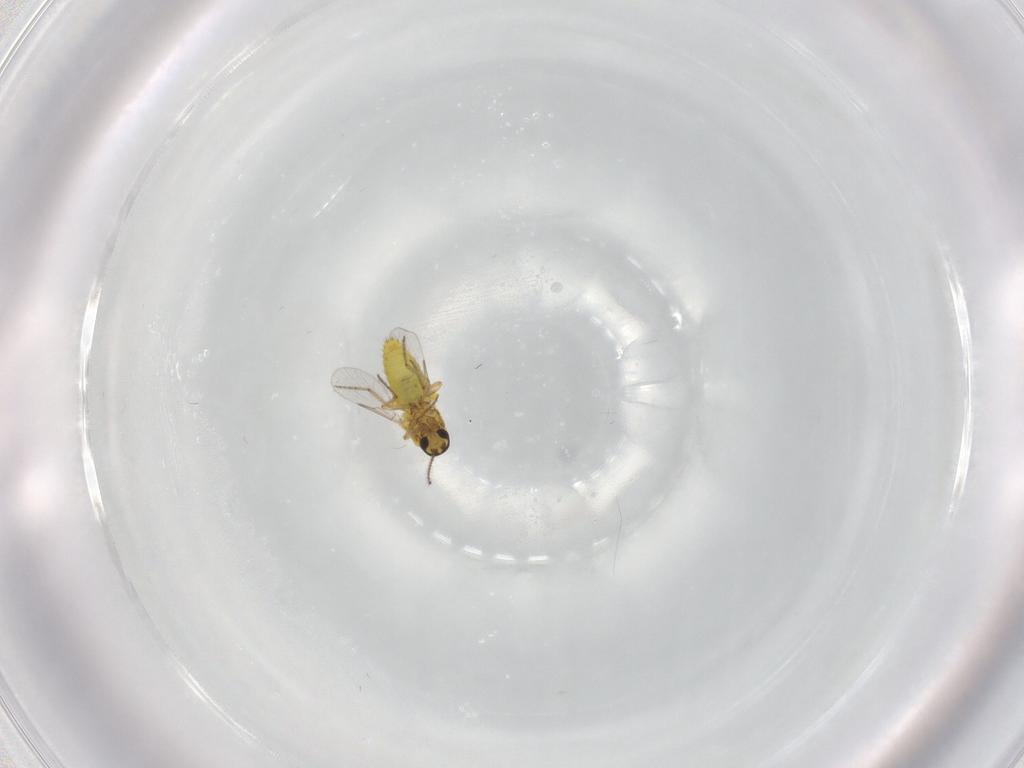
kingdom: Animalia
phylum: Arthropoda
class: Insecta
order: Diptera
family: Ceratopogonidae
